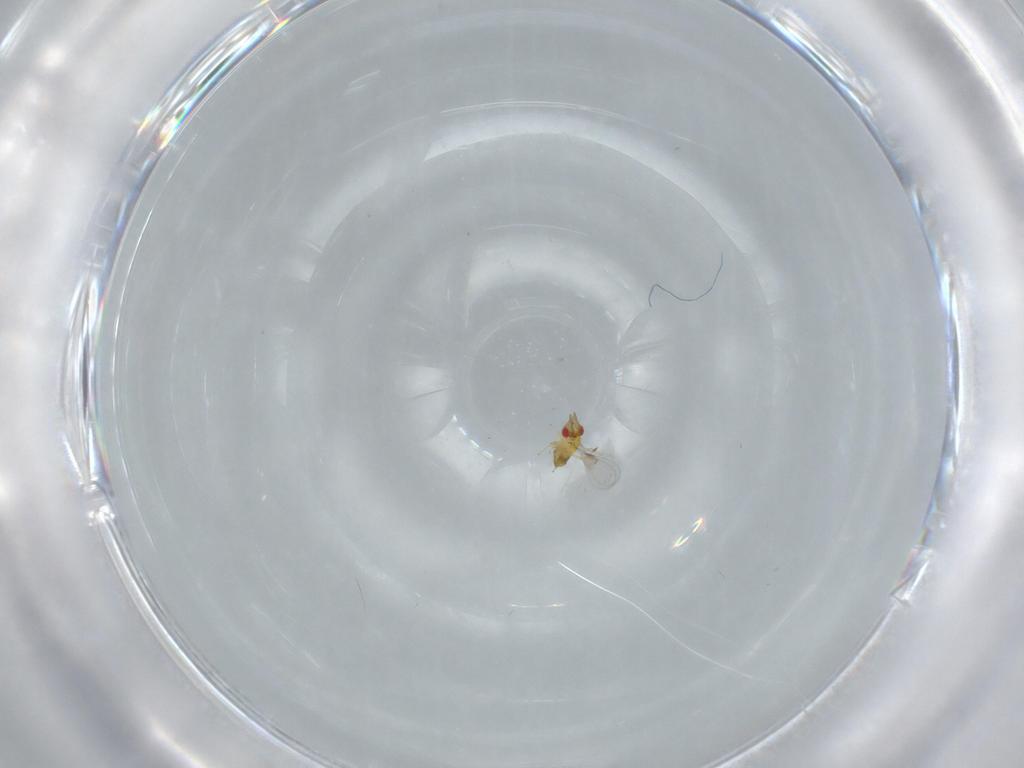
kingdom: Animalia
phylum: Arthropoda
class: Insecta
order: Hymenoptera
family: Trichogrammatidae
